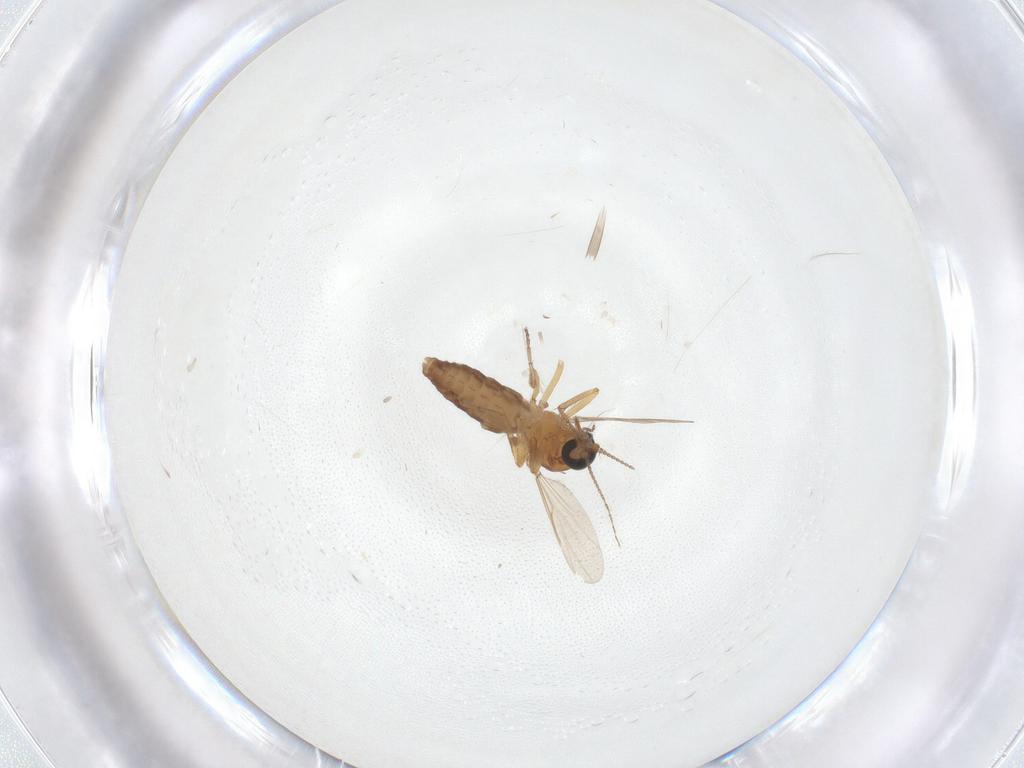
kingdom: Animalia
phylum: Arthropoda
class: Insecta
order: Diptera
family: Ceratopogonidae
